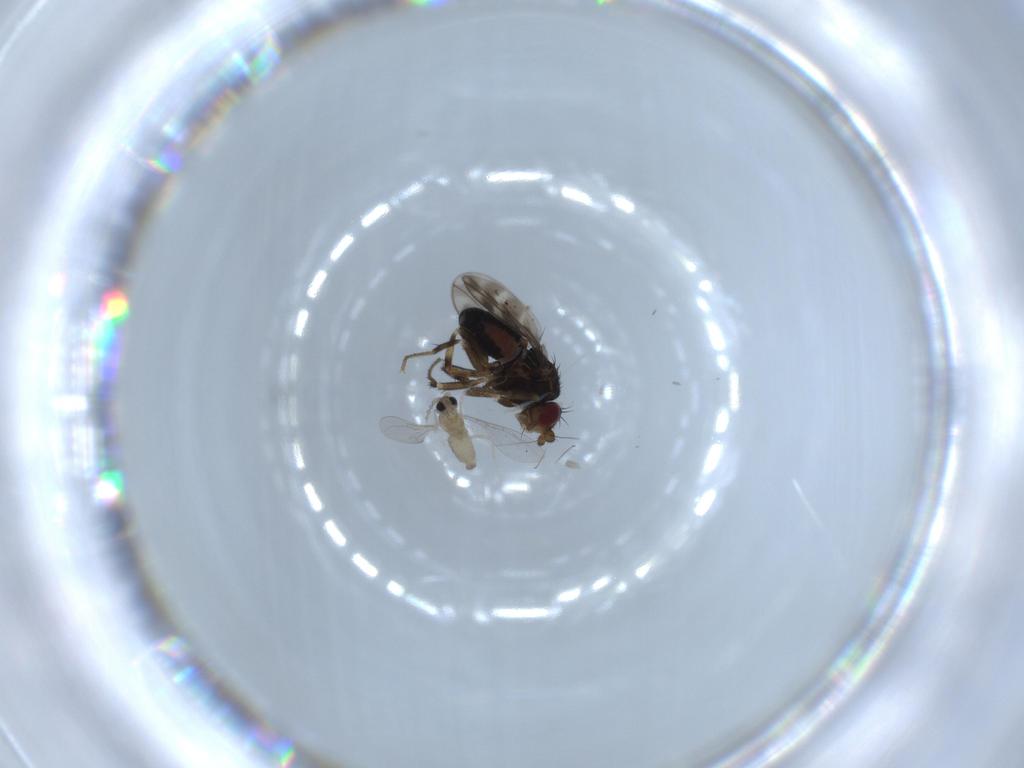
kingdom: Animalia
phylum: Arthropoda
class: Insecta
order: Diptera
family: Sphaeroceridae
